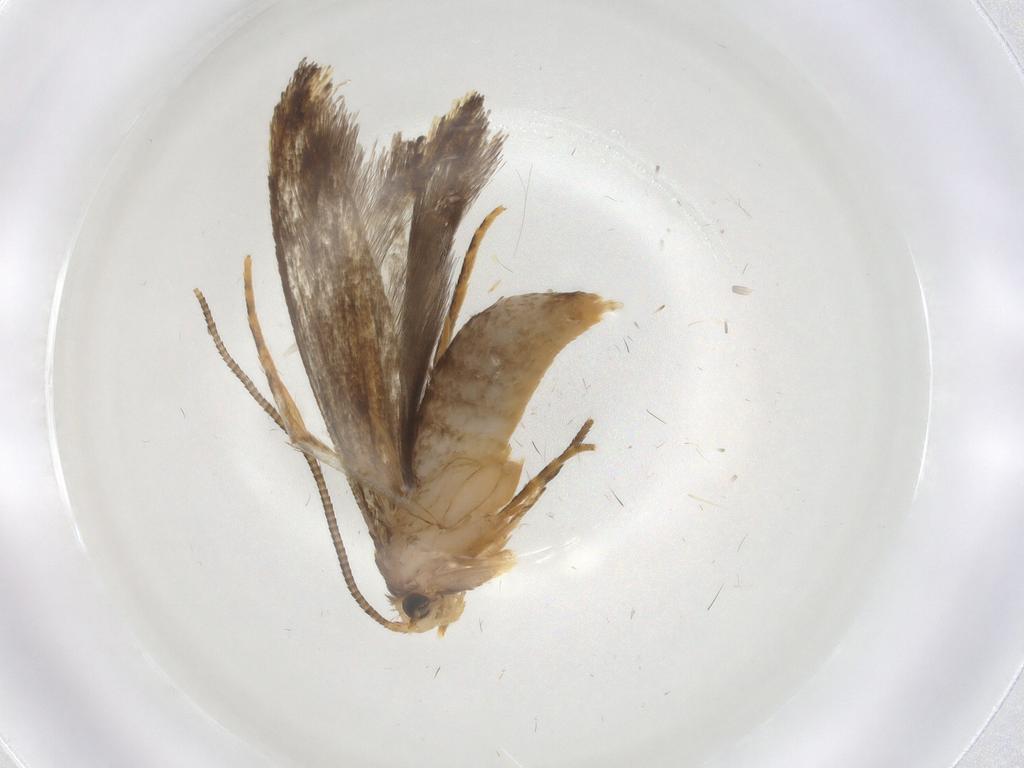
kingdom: Animalia
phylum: Arthropoda
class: Insecta
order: Lepidoptera
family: Tineidae
